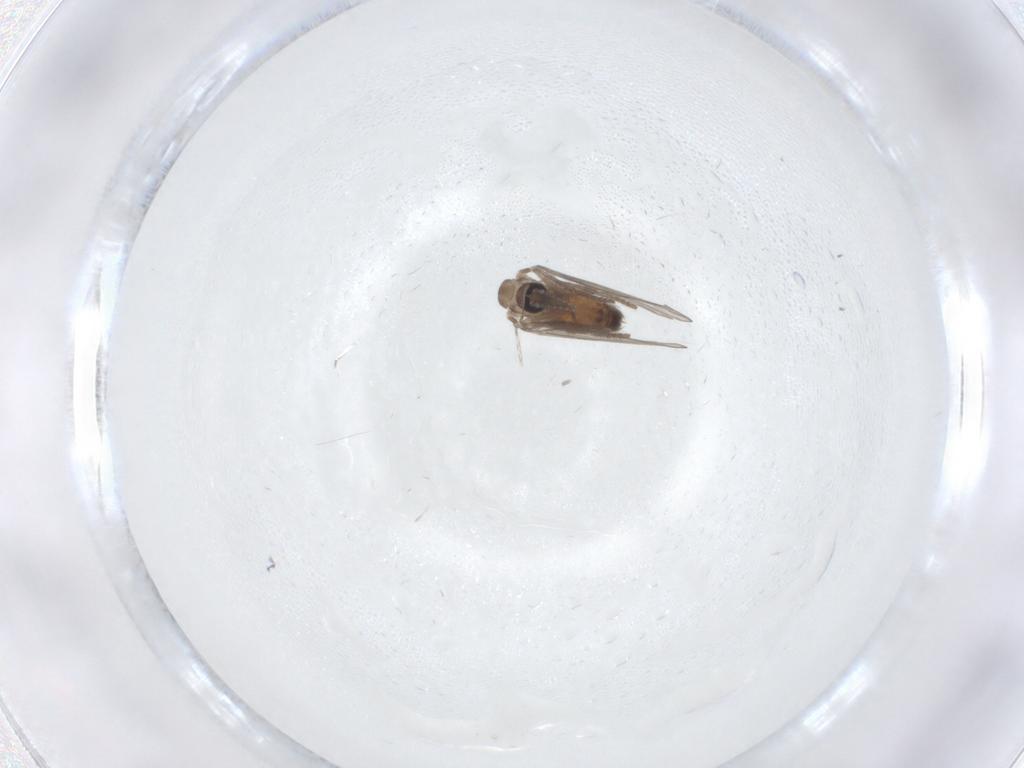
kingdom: Animalia
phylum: Arthropoda
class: Insecta
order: Diptera
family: Psychodidae
